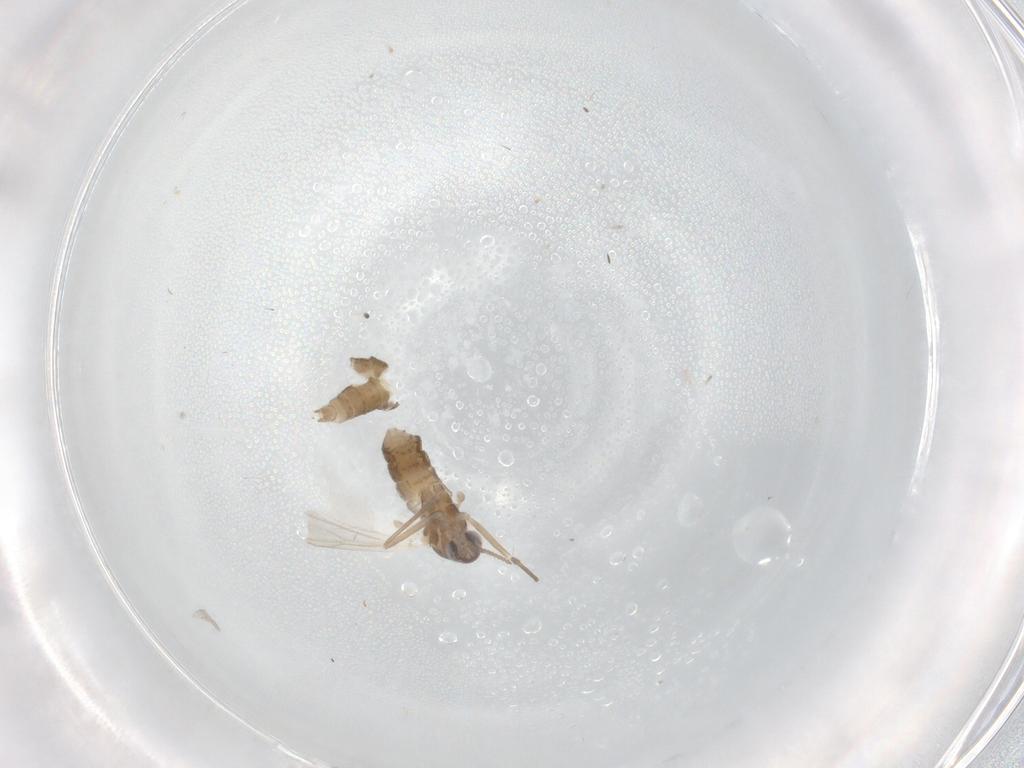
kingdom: Animalia
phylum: Arthropoda
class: Insecta
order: Diptera
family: Cecidomyiidae
